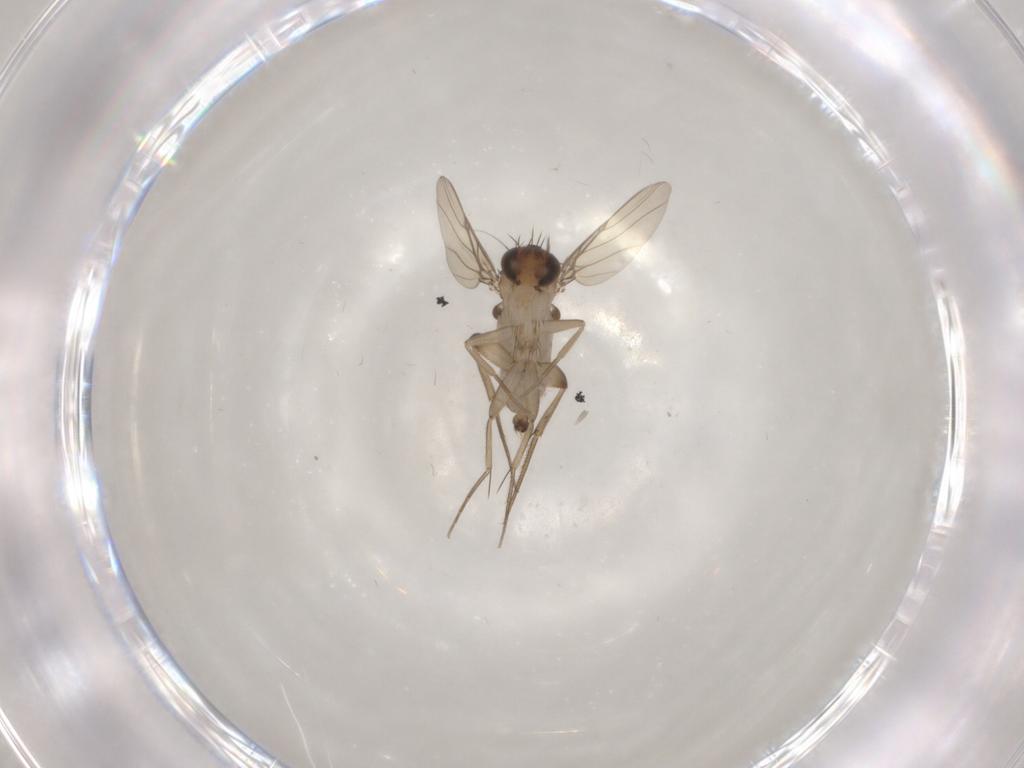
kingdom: Animalia
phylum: Arthropoda
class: Insecta
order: Diptera
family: Phoridae
